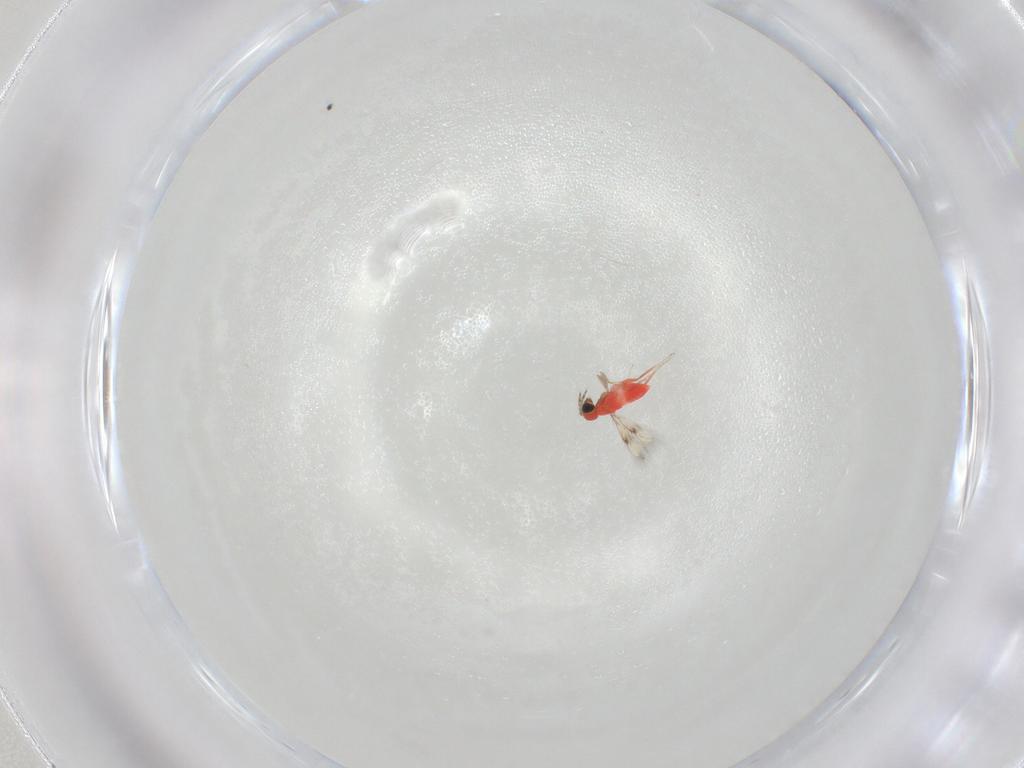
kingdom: Animalia
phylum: Arthropoda
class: Insecta
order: Hymenoptera
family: Trichogrammatidae
